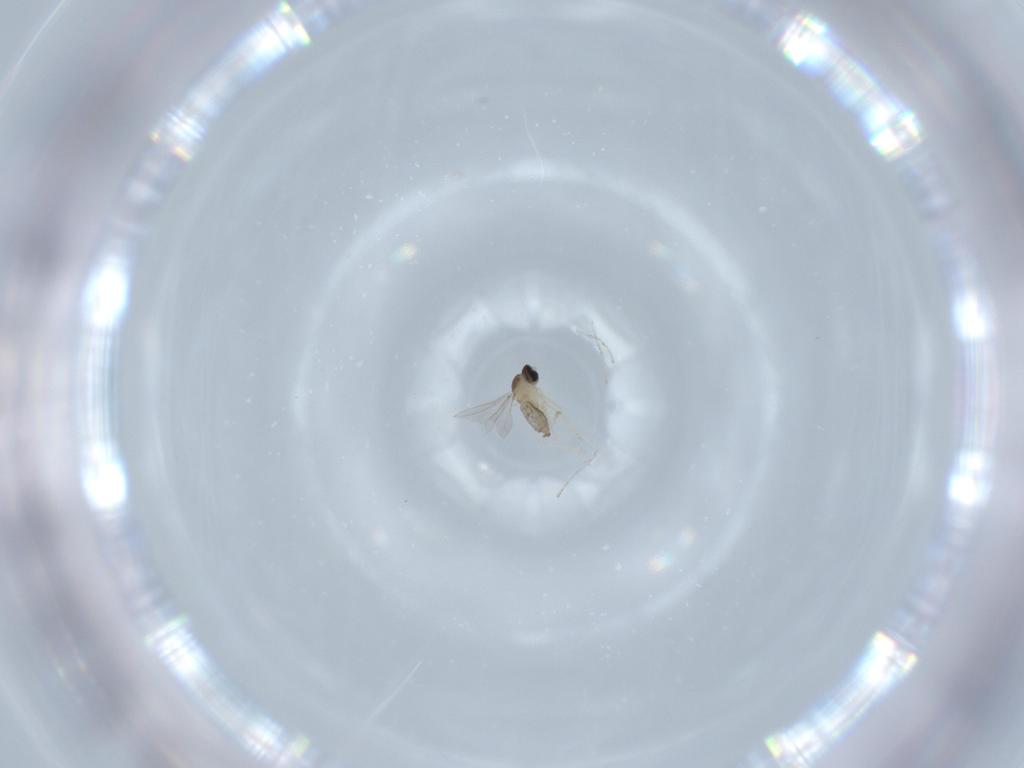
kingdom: Animalia
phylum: Arthropoda
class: Insecta
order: Diptera
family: Cecidomyiidae
